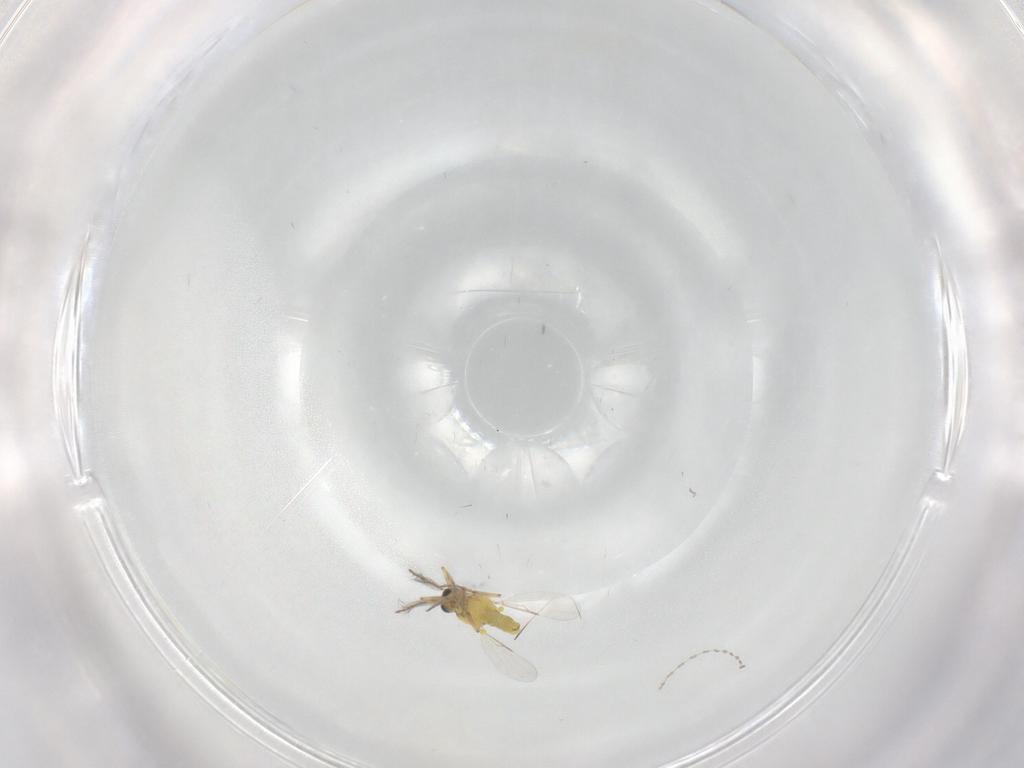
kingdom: Animalia
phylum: Arthropoda
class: Insecta
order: Diptera
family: Ceratopogonidae
